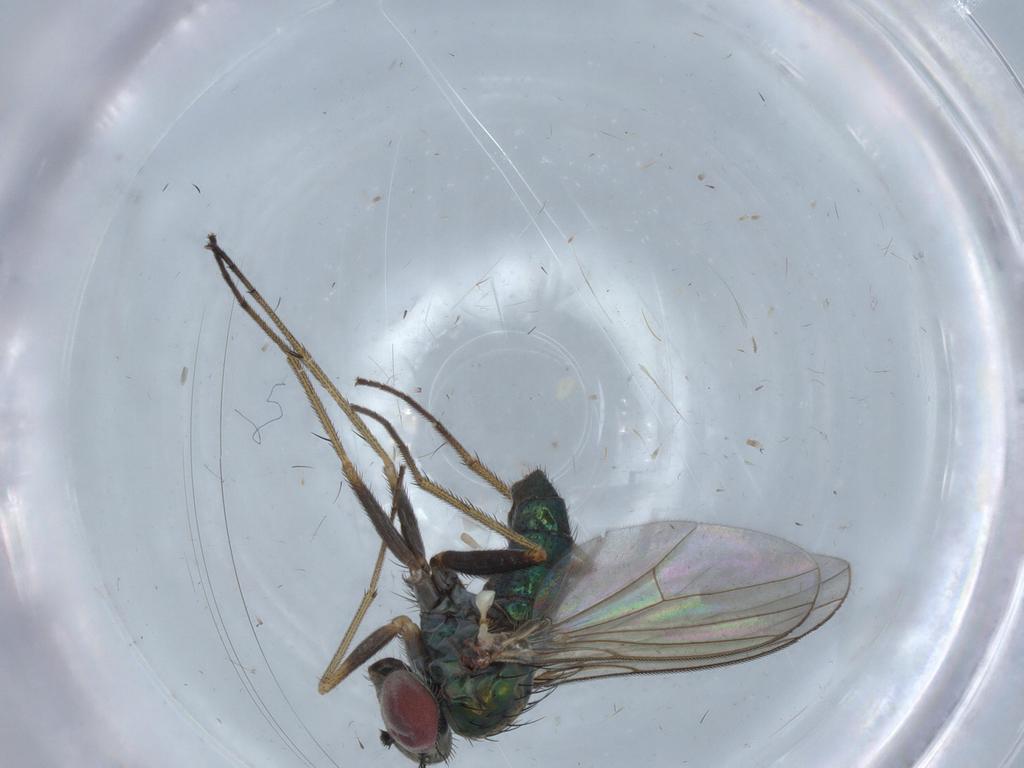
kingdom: Animalia
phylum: Arthropoda
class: Insecta
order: Diptera
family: Dolichopodidae
